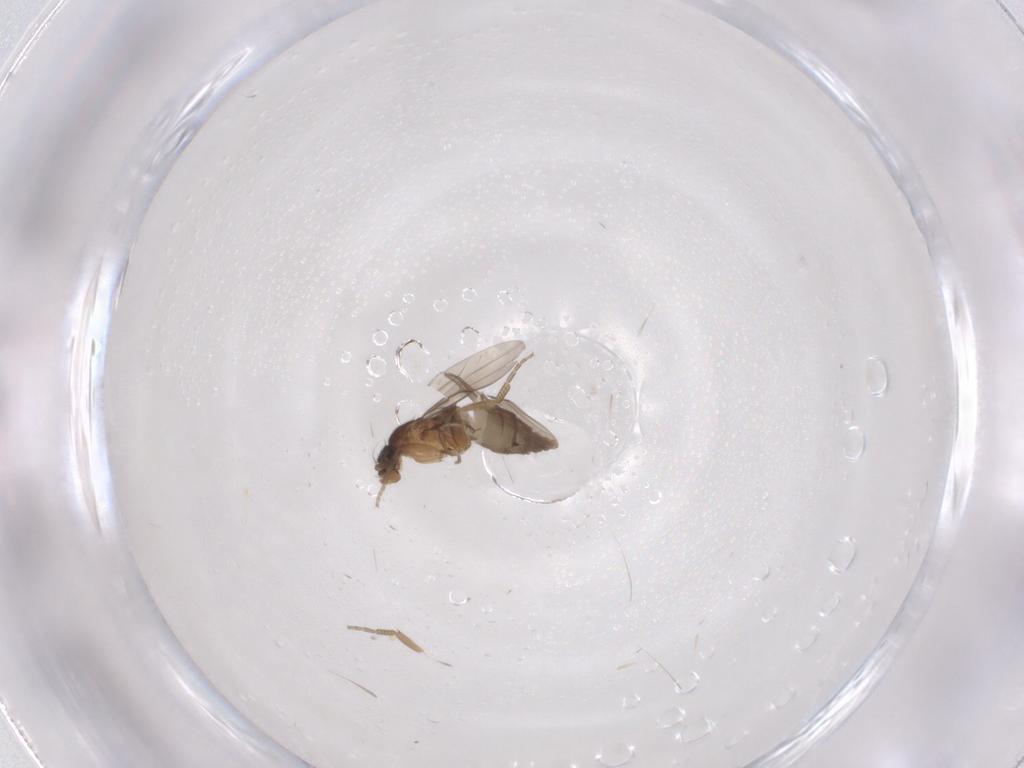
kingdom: Animalia
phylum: Arthropoda
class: Insecta
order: Diptera
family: Phoridae
